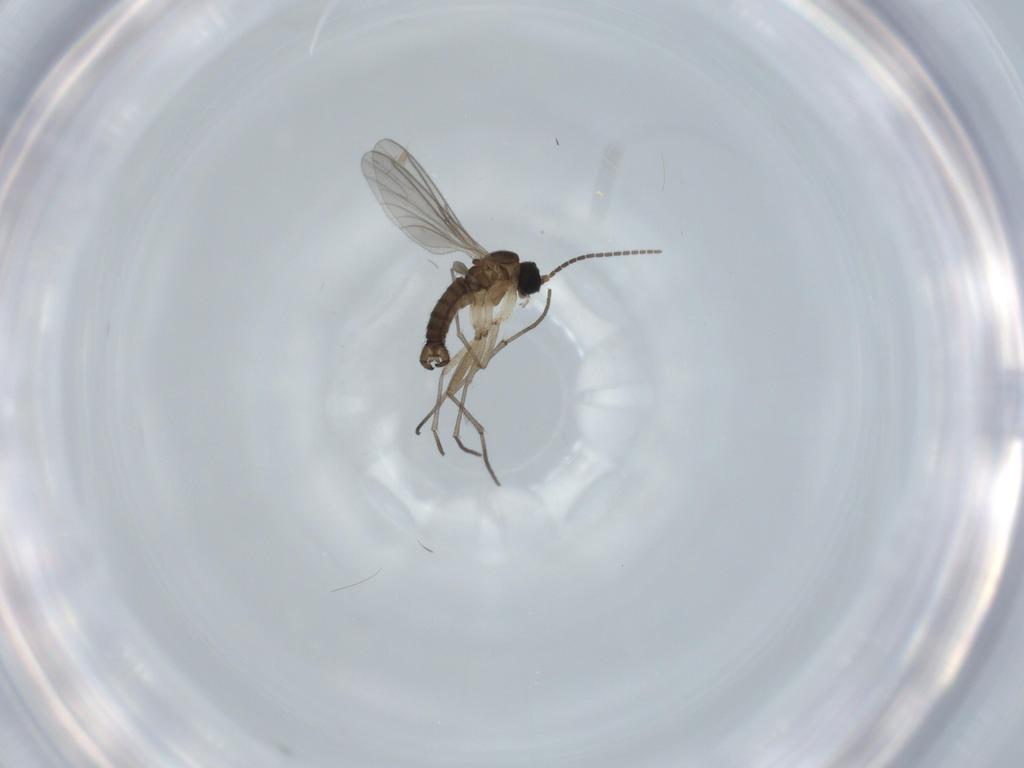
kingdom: Animalia
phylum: Arthropoda
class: Insecta
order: Diptera
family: Sciaridae
